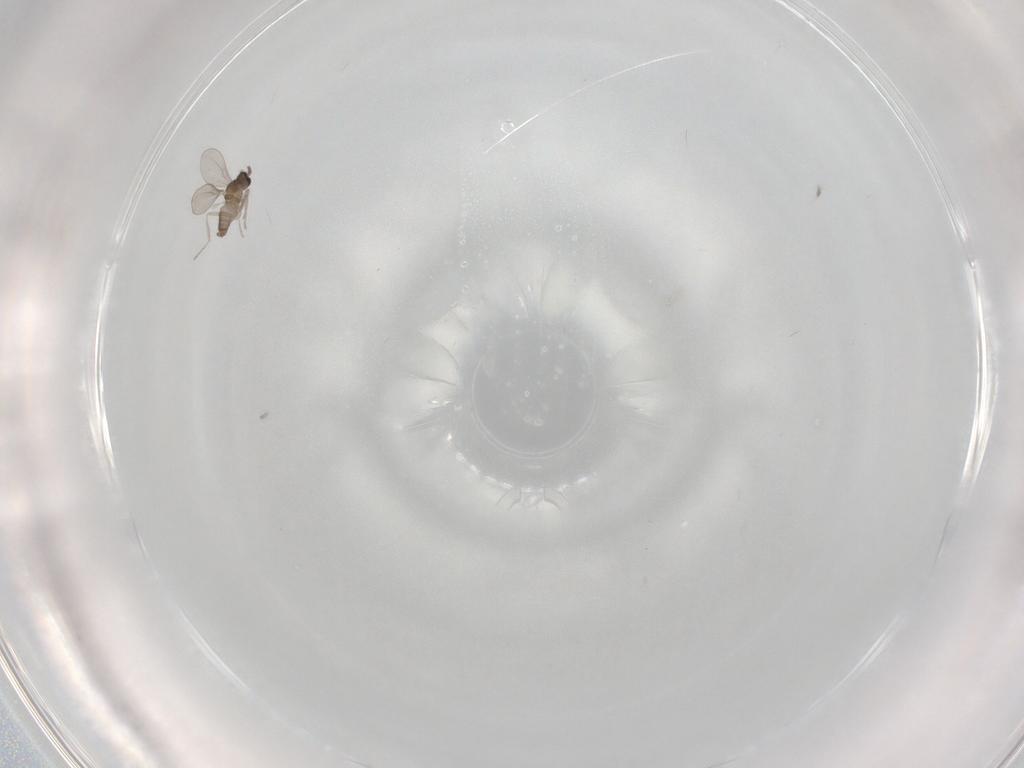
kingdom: Animalia
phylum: Arthropoda
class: Insecta
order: Diptera
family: Cecidomyiidae
